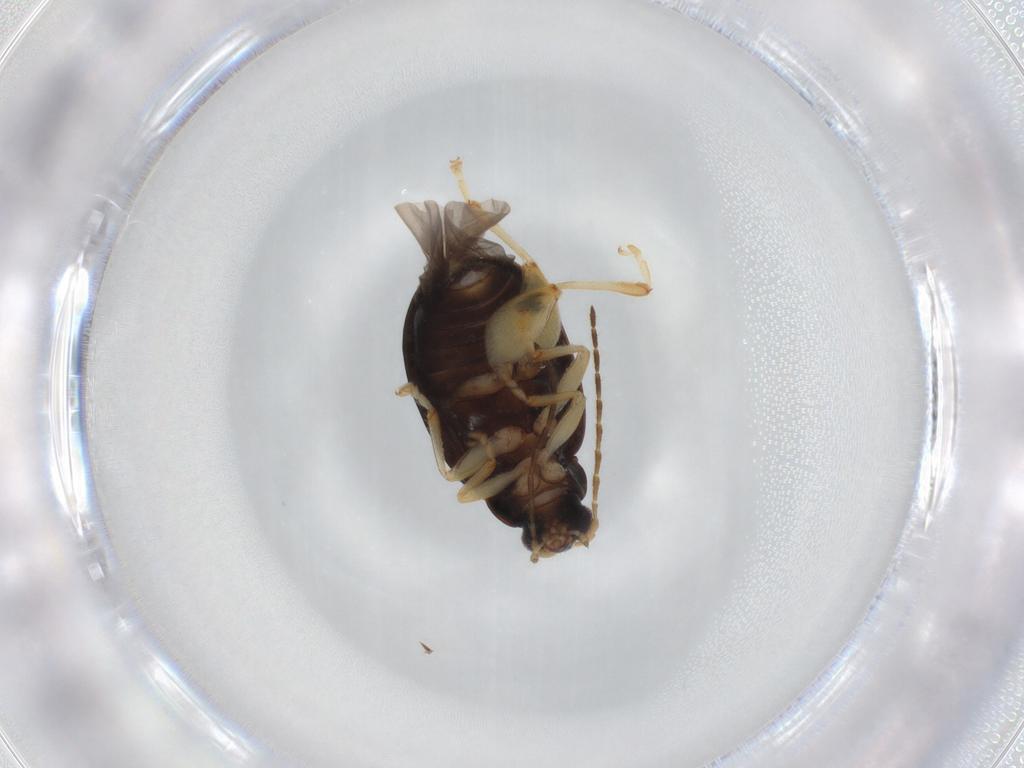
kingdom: Animalia
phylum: Arthropoda
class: Insecta
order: Coleoptera
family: Chrysomelidae
